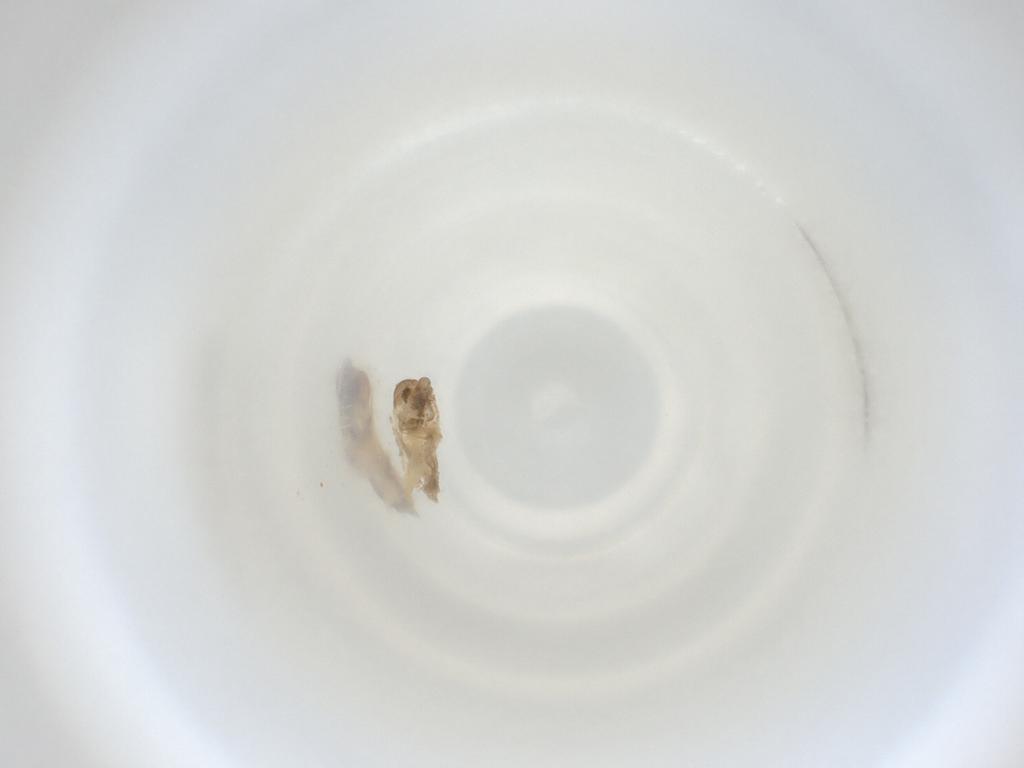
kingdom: Animalia
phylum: Arthropoda
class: Insecta
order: Diptera
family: Cecidomyiidae
